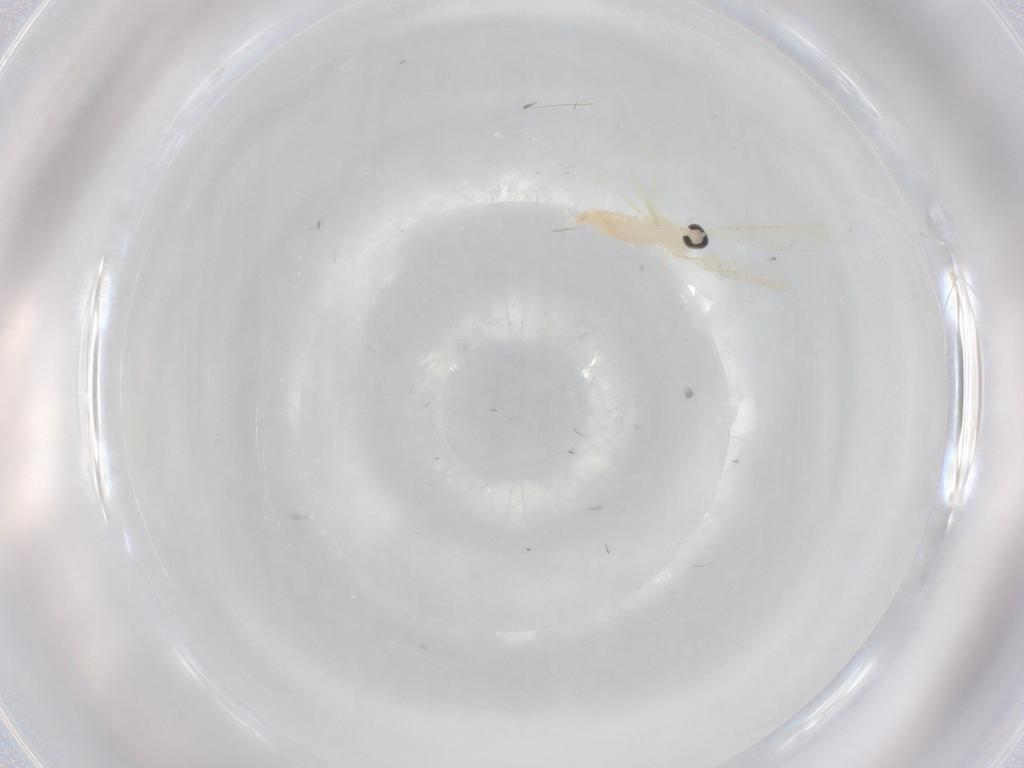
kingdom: Animalia
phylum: Arthropoda
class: Insecta
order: Diptera
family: Cecidomyiidae
